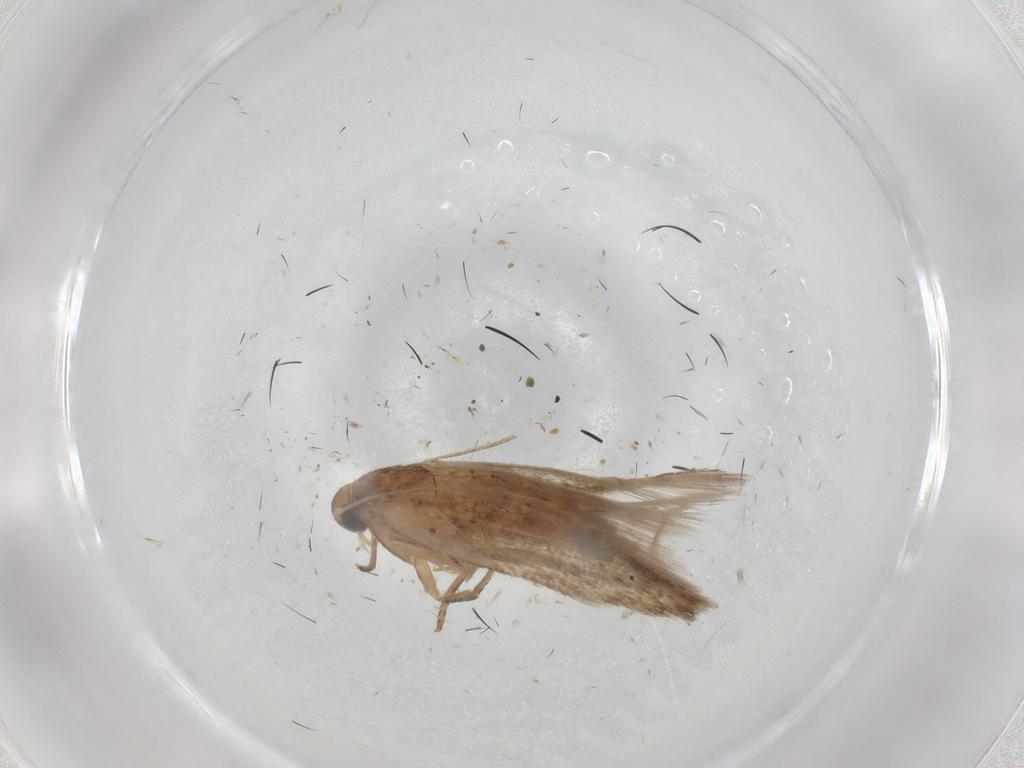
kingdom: Animalia
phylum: Arthropoda
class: Insecta
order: Lepidoptera
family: Cosmopterigidae
